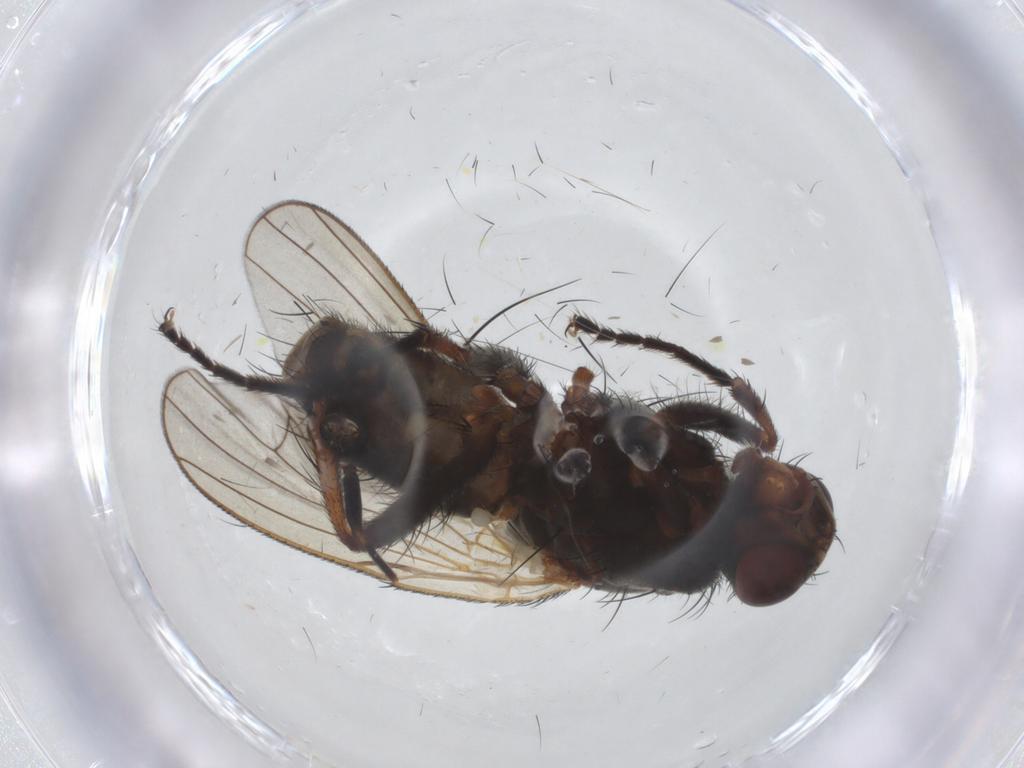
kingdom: Animalia
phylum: Arthropoda
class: Insecta
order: Diptera
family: Anthomyiidae
